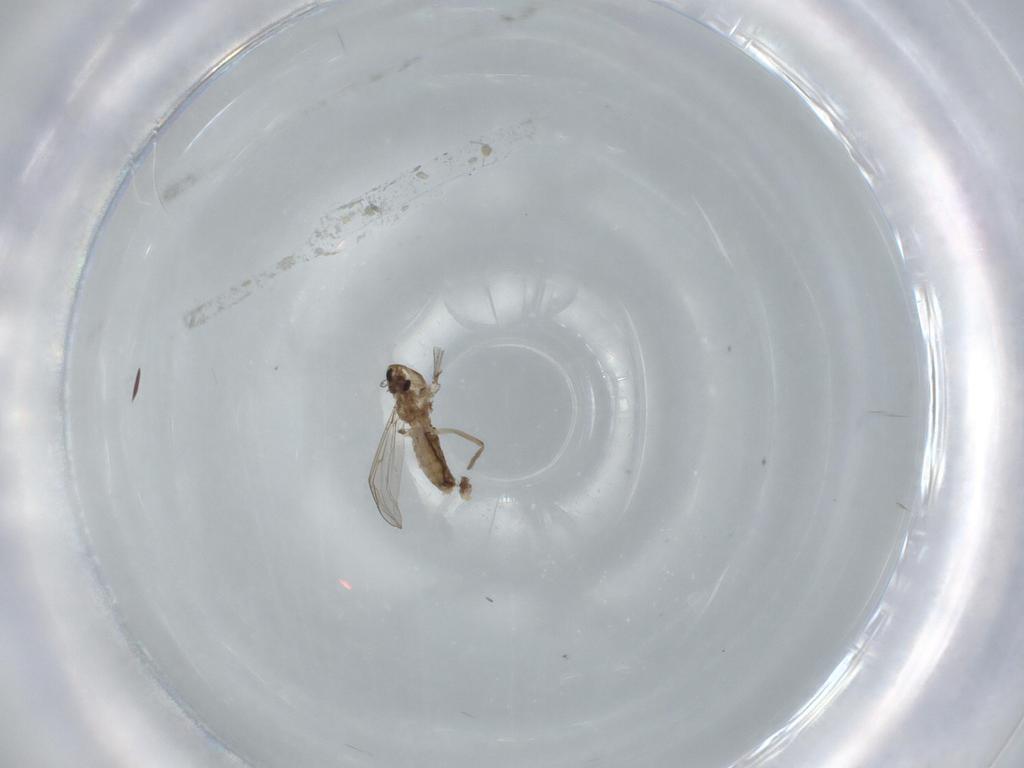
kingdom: Animalia
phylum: Arthropoda
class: Insecta
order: Diptera
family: Chironomidae
